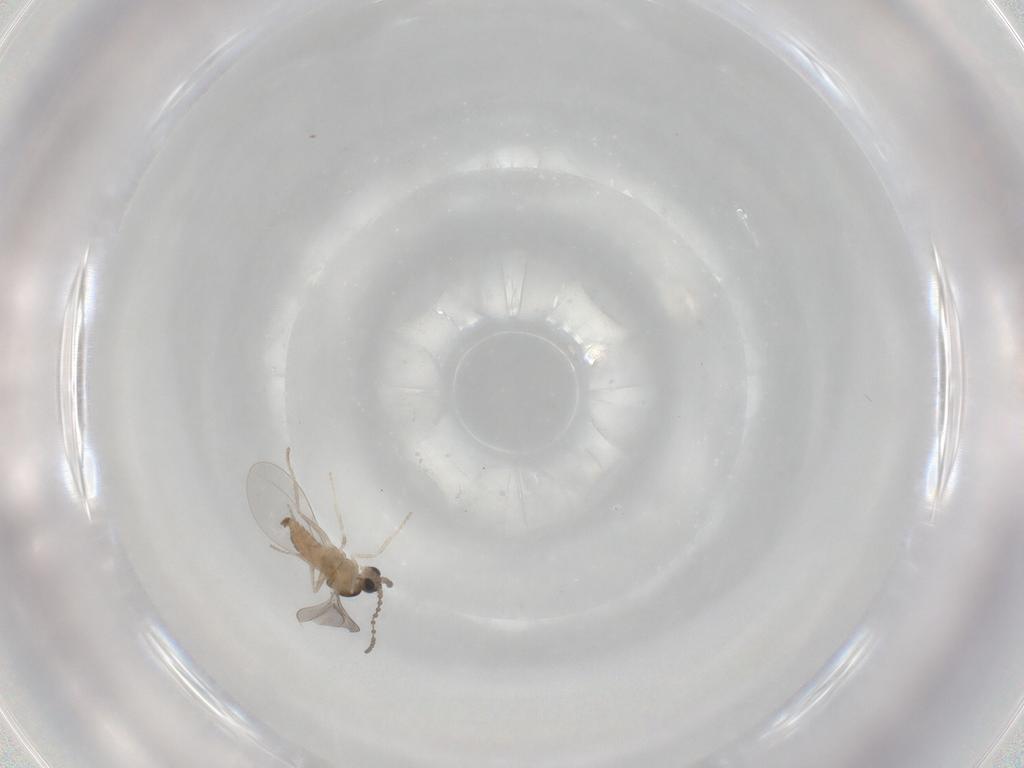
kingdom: Animalia
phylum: Arthropoda
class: Insecta
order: Diptera
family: Cecidomyiidae
